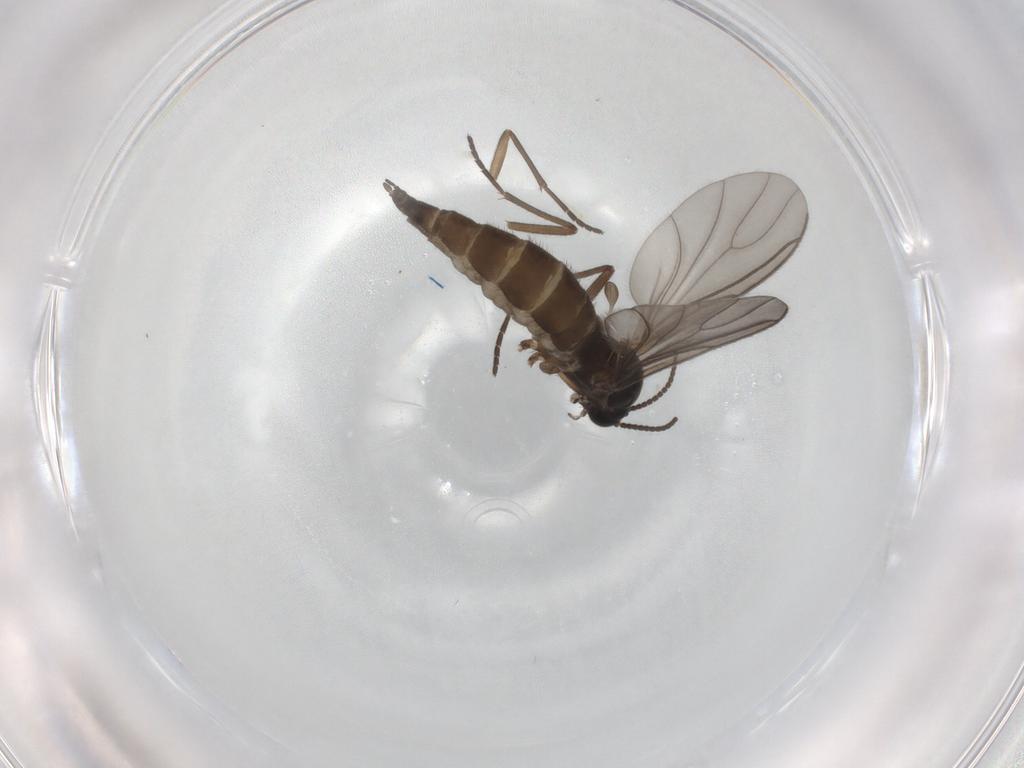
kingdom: Animalia
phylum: Arthropoda
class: Insecta
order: Diptera
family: Sciaridae
